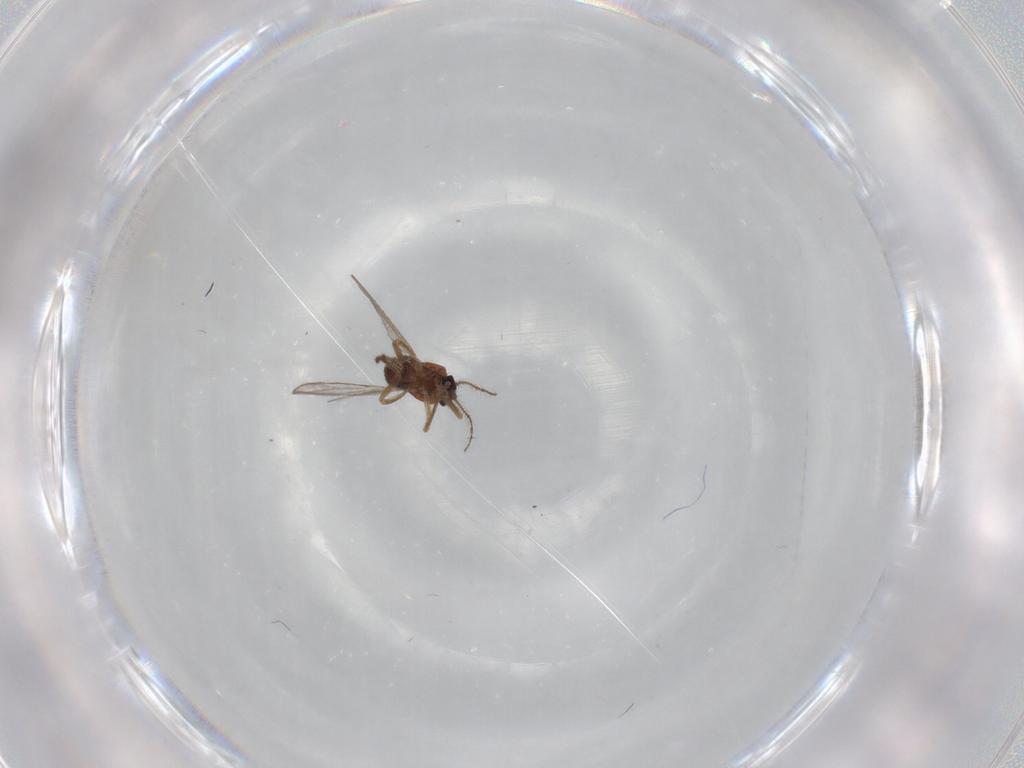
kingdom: Animalia
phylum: Arthropoda
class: Insecta
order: Diptera
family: Ceratopogonidae
